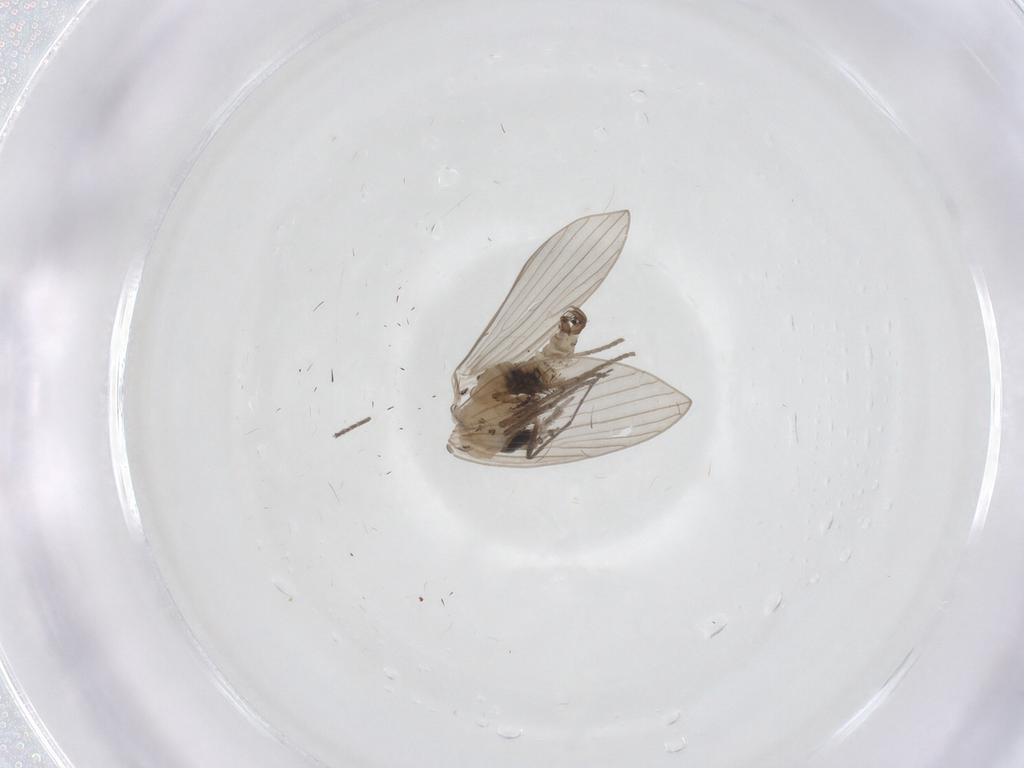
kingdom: Animalia
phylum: Arthropoda
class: Insecta
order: Diptera
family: Psychodidae
